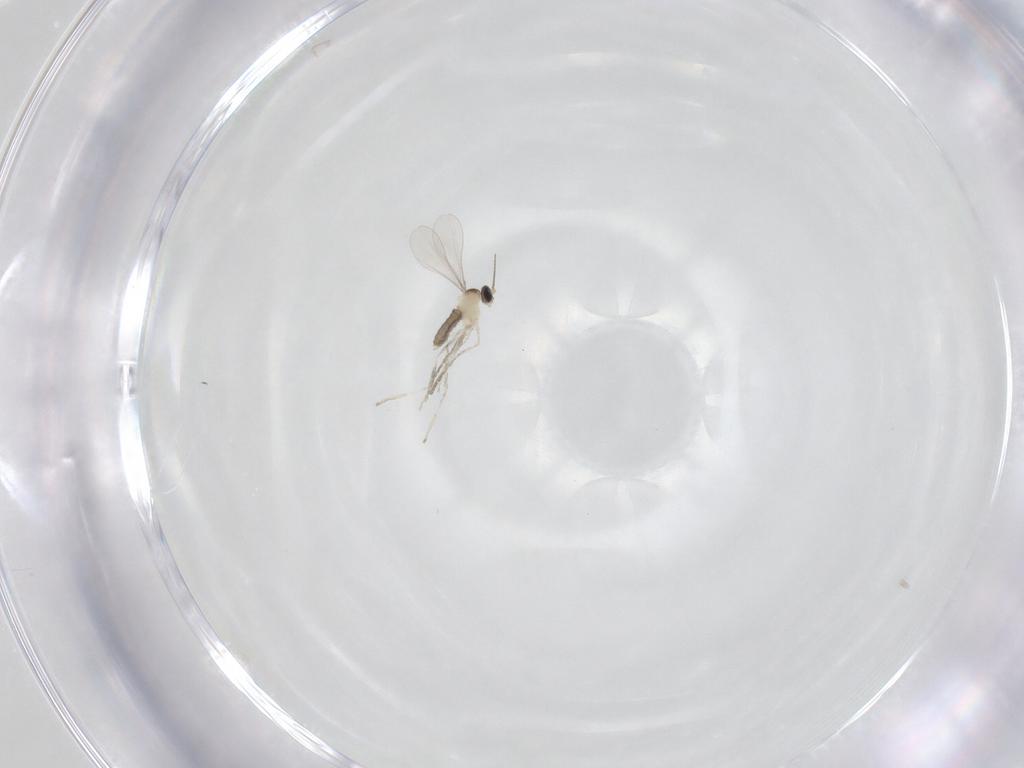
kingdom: Animalia
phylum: Arthropoda
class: Insecta
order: Diptera
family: Cecidomyiidae
